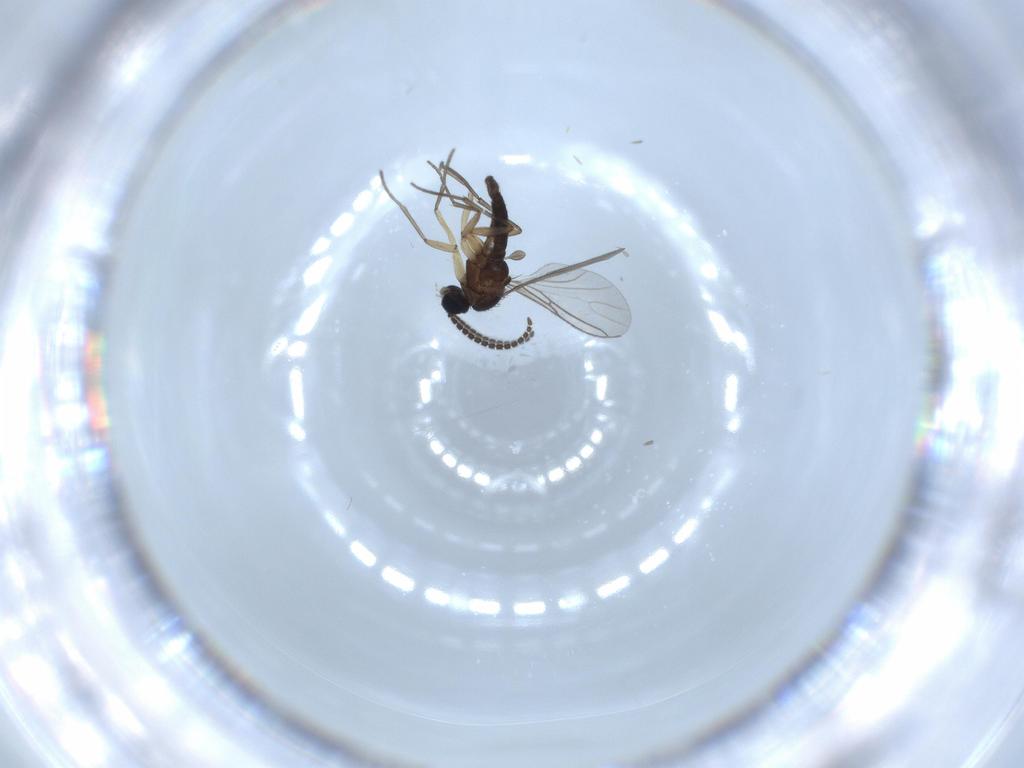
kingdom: Animalia
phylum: Arthropoda
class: Insecta
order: Diptera
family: Sciaridae
